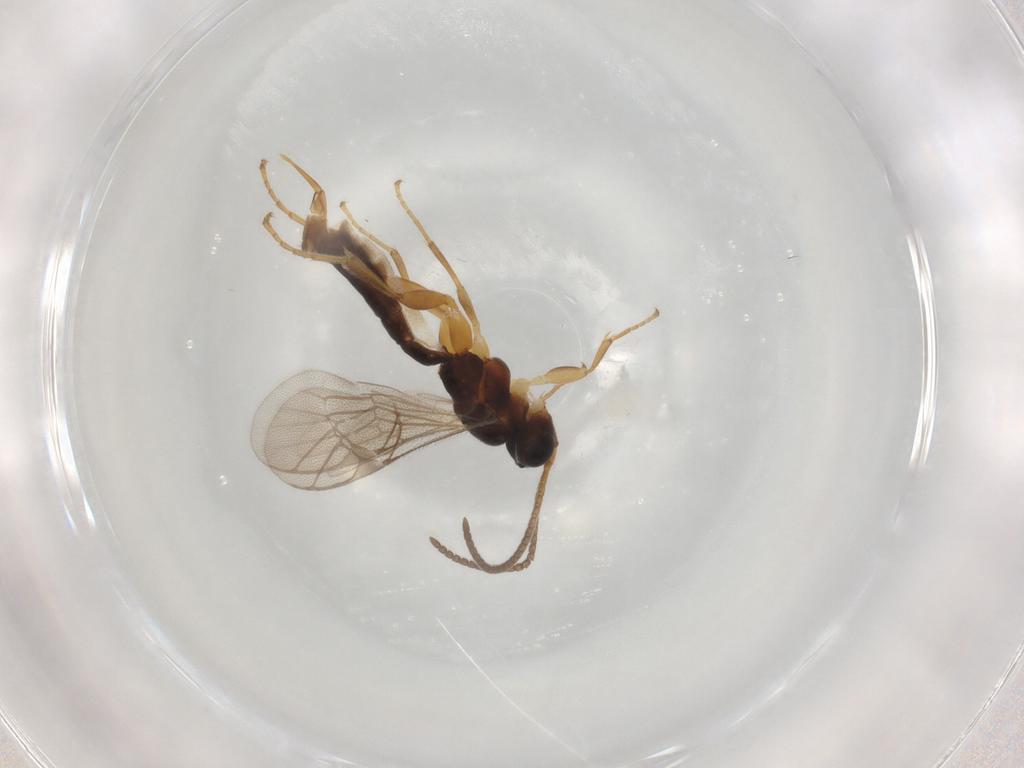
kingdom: Animalia
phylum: Arthropoda
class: Insecta
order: Hymenoptera
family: Ichneumonidae
